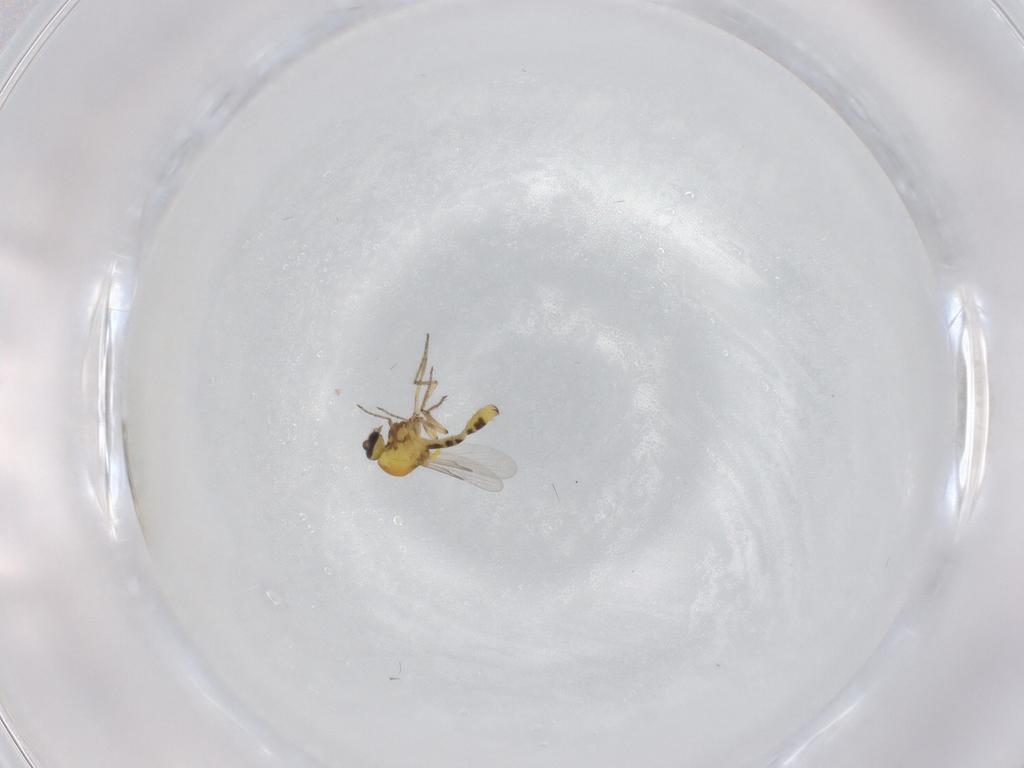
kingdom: Animalia
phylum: Arthropoda
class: Insecta
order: Diptera
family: Ceratopogonidae
